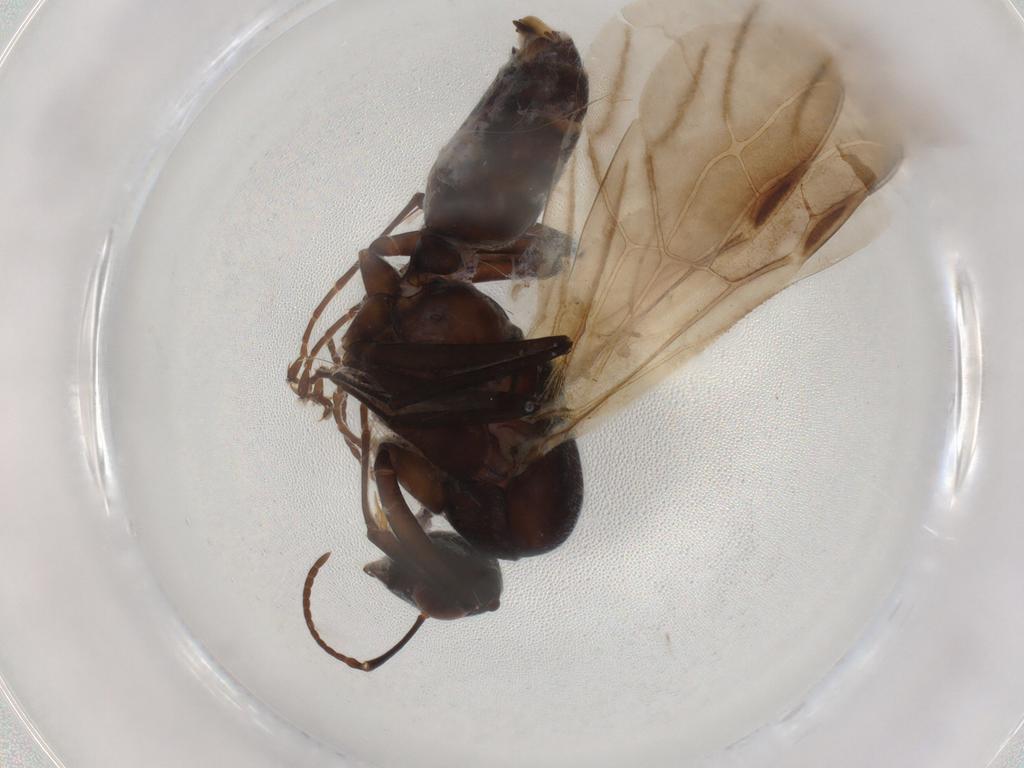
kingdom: Animalia
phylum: Arthropoda
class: Insecta
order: Hymenoptera
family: Formicidae
